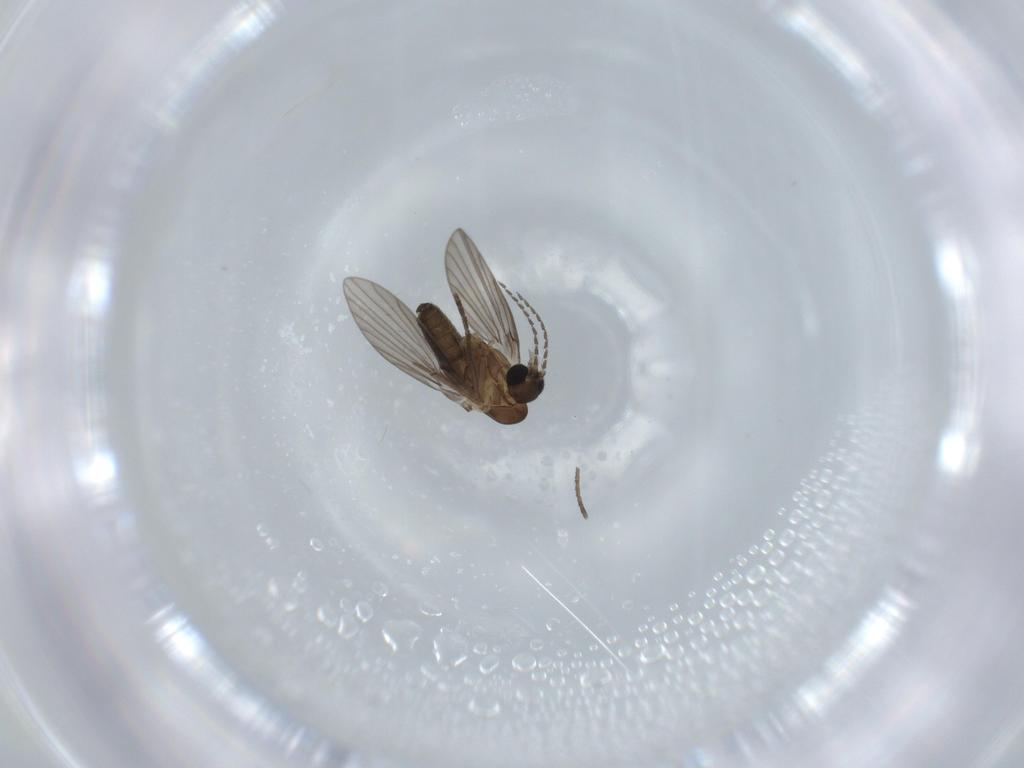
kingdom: Animalia
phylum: Arthropoda
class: Insecta
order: Diptera
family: Psychodidae
